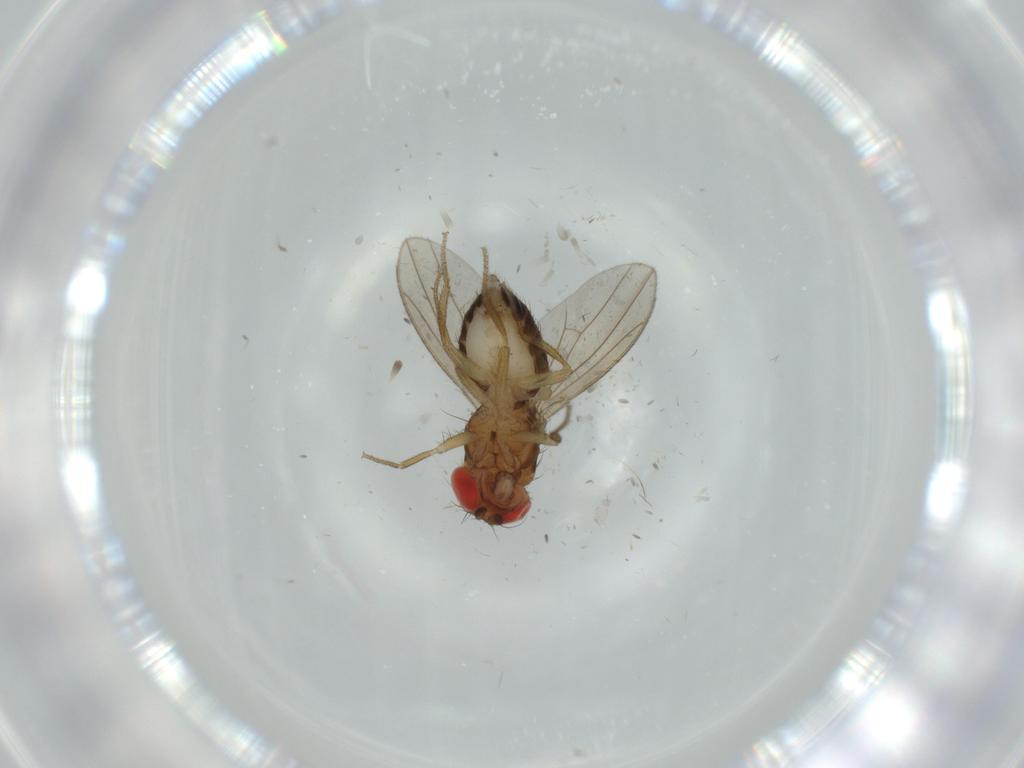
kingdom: Animalia
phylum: Arthropoda
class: Insecta
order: Diptera
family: Drosophilidae
